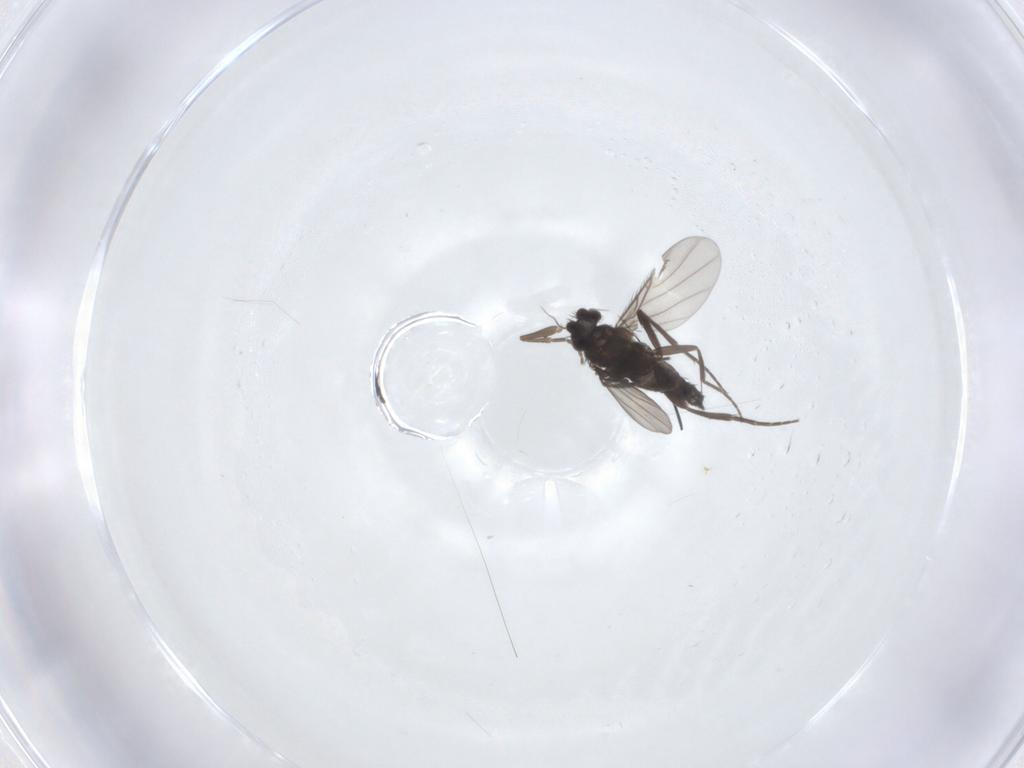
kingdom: Animalia
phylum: Arthropoda
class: Insecta
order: Diptera
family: Phoridae
